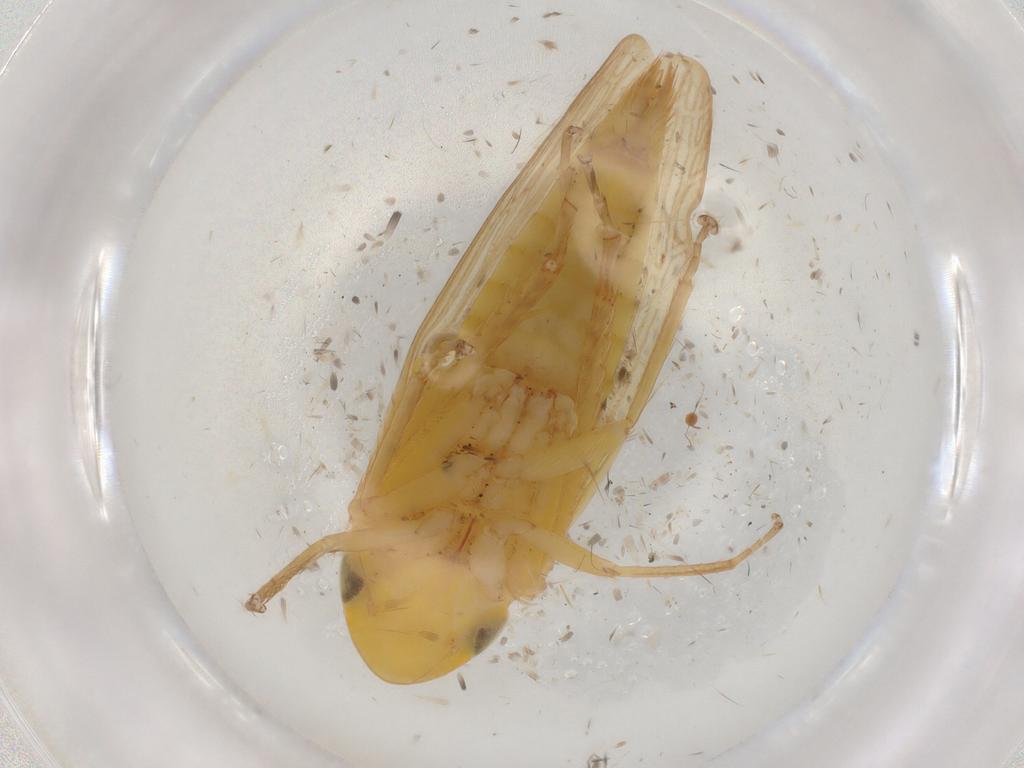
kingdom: Animalia
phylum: Arthropoda
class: Insecta
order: Hemiptera
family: Cicadellidae
